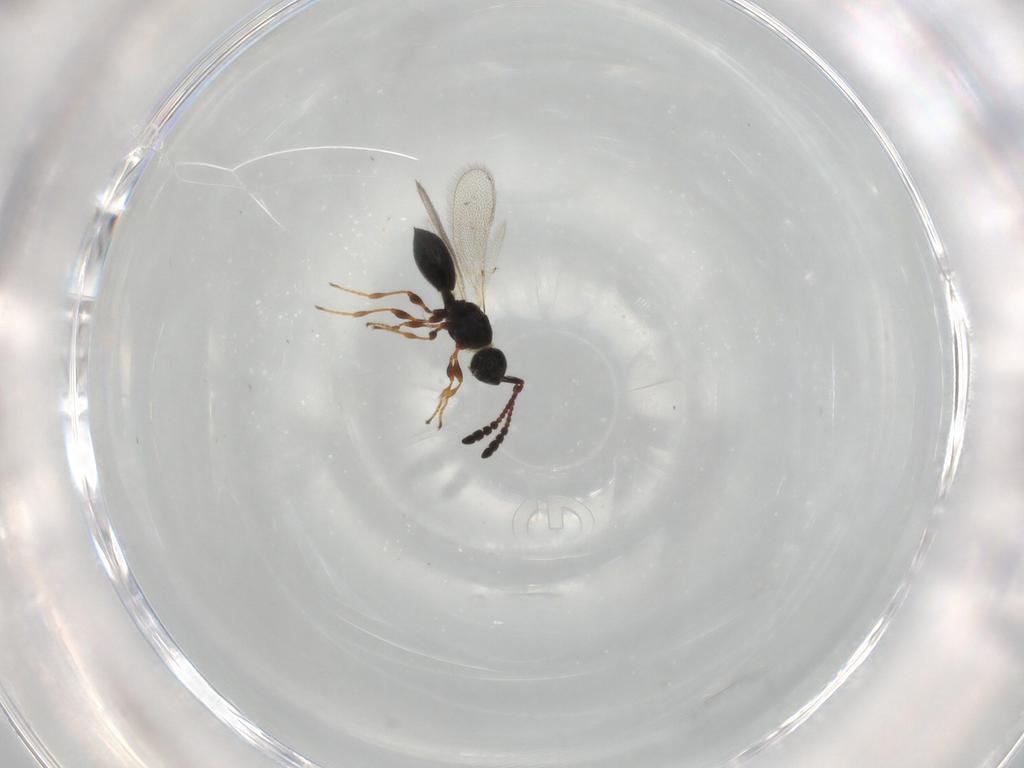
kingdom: Animalia
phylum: Arthropoda
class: Insecta
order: Hymenoptera
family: Diapriidae
